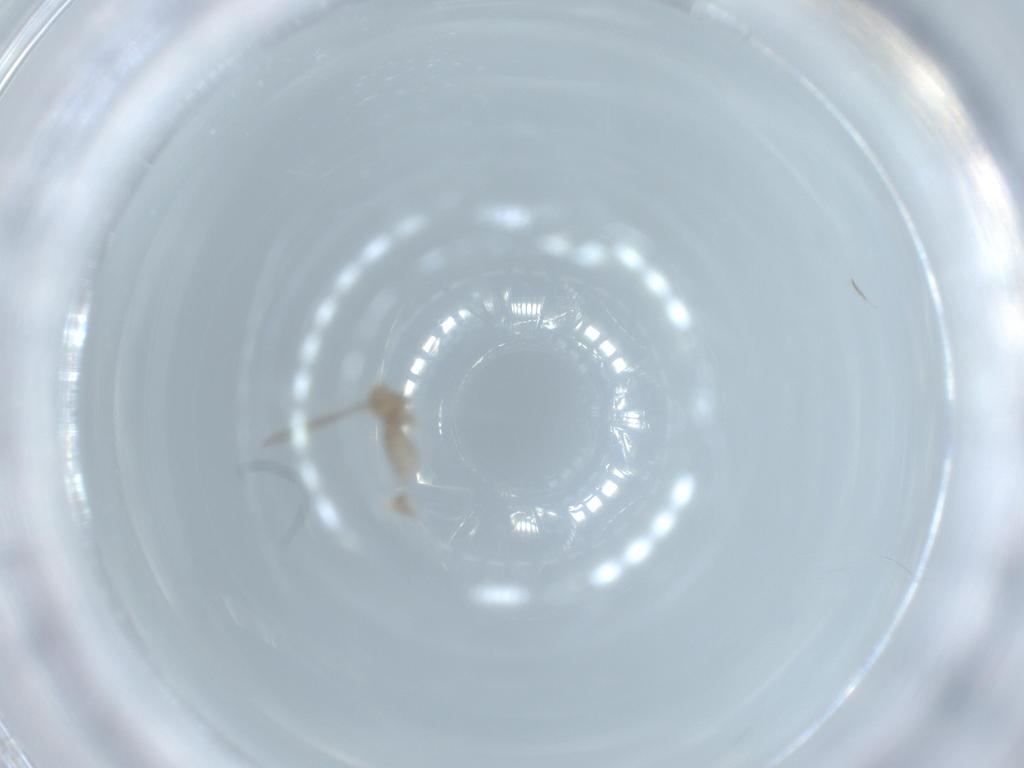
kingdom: Animalia
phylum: Arthropoda
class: Insecta
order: Diptera
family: Cecidomyiidae
